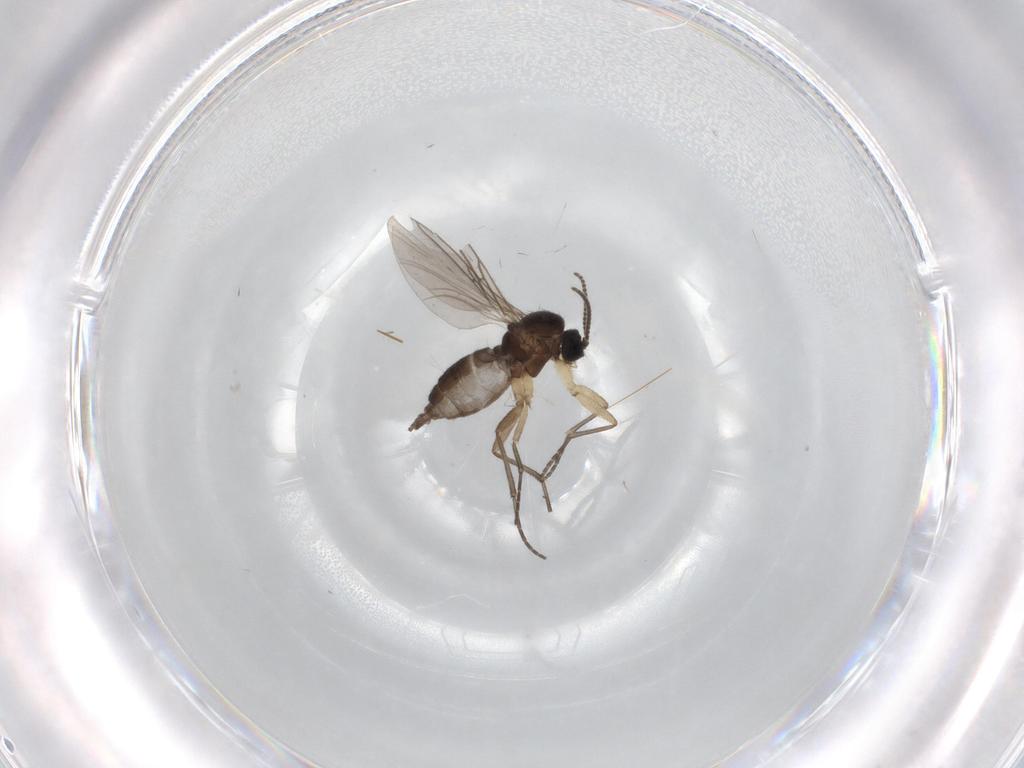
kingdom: Animalia
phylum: Arthropoda
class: Insecta
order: Diptera
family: Sciaridae
